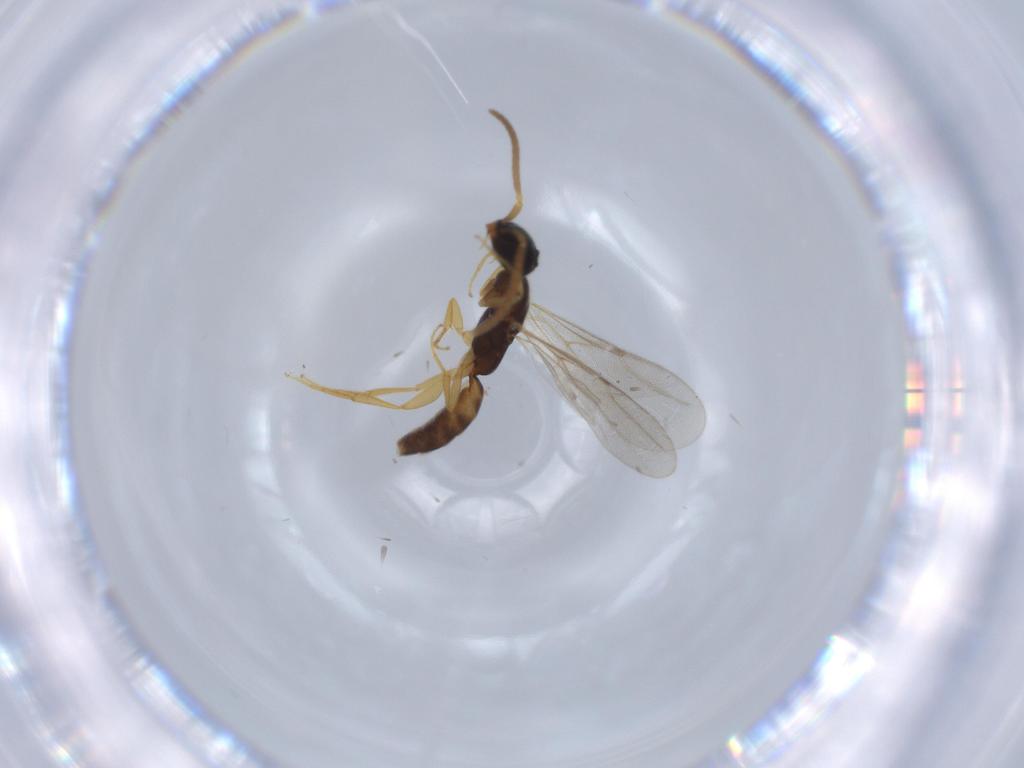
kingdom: Animalia
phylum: Arthropoda
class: Insecta
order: Hymenoptera
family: Bethylidae
